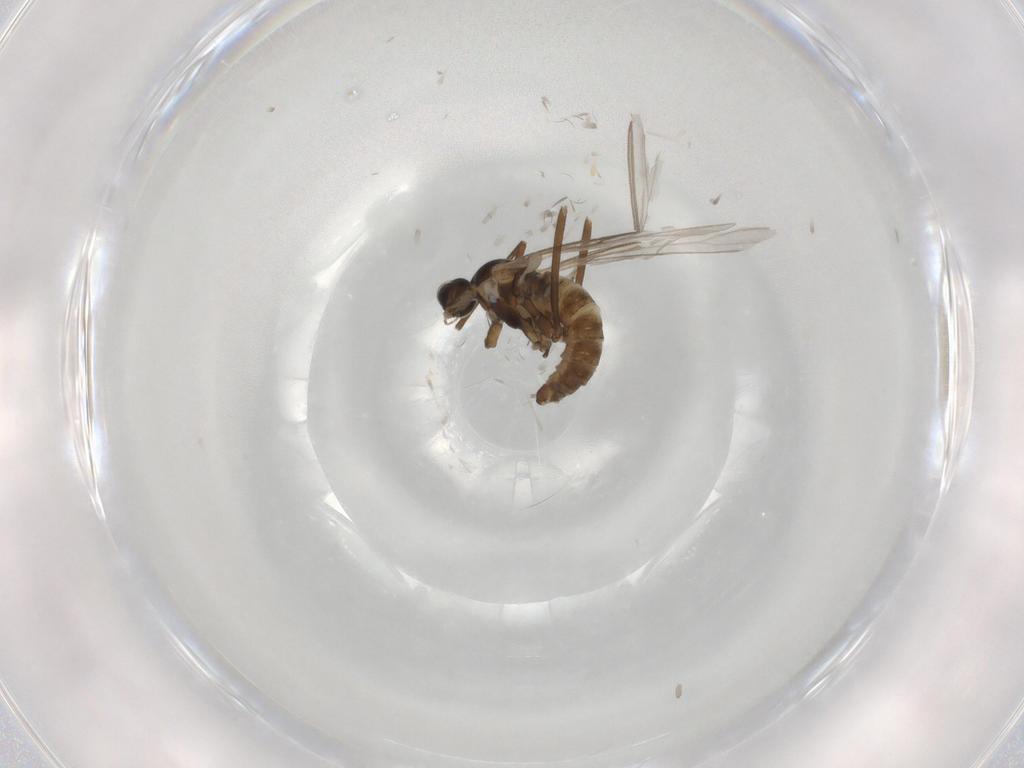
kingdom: Animalia
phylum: Arthropoda
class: Insecta
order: Diptera
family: Cecidomyiidae
